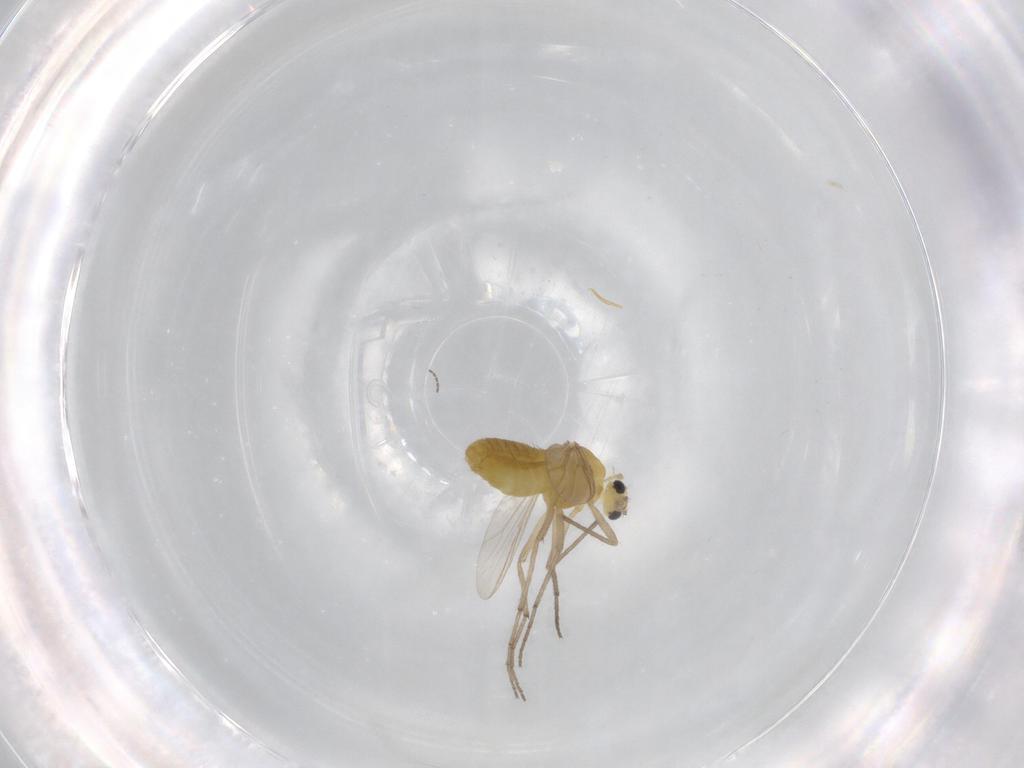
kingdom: Animalia
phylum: Arthropoda
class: Insecta
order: Diptera
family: Chironomidae
